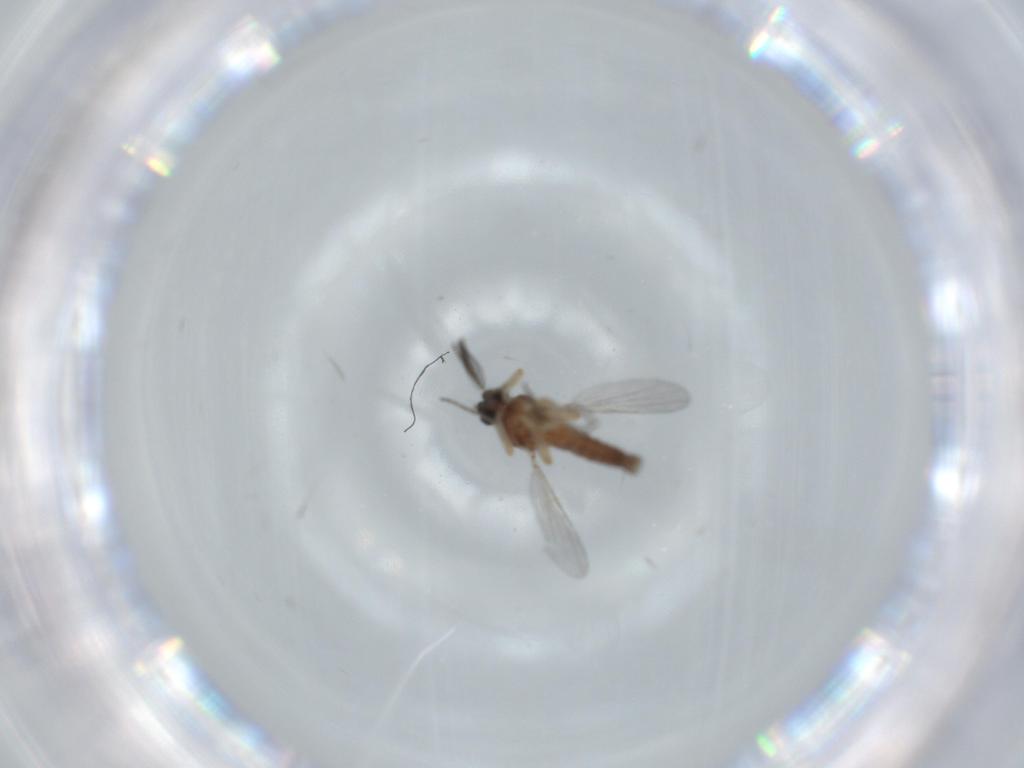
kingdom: Animalia
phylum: Arthropoda
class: Insecta
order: Diptera
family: Ceratopogonidae
